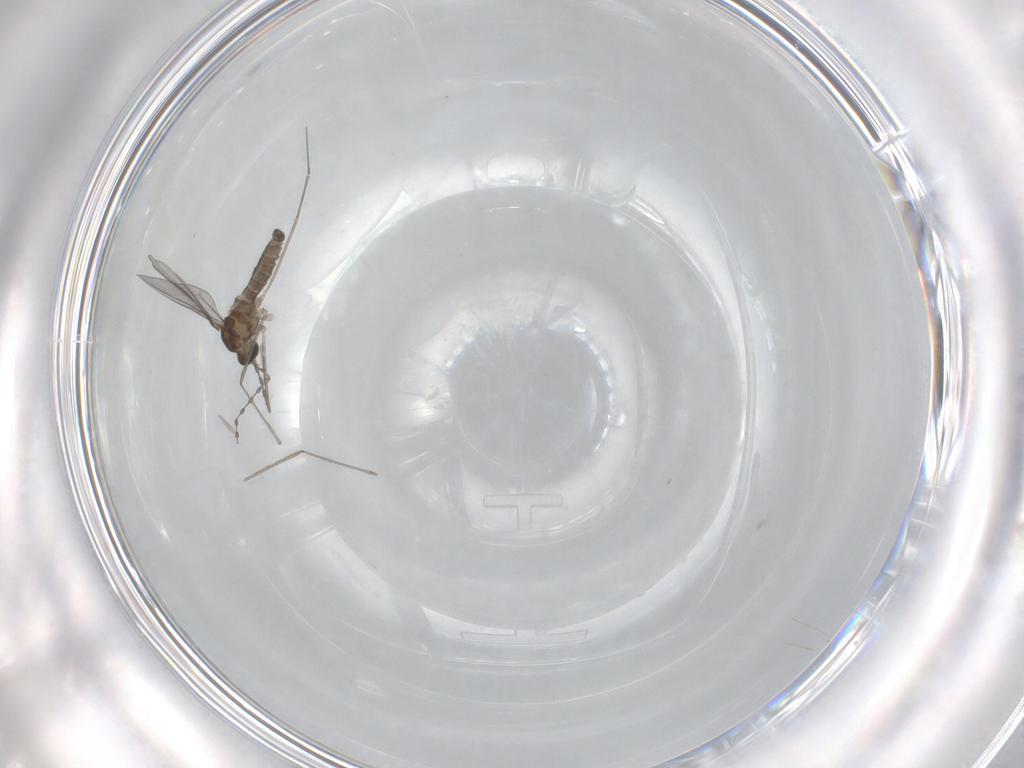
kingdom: Animalia
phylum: Arthropoda
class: Insecta
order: Diptera
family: Cecidomyiidae
